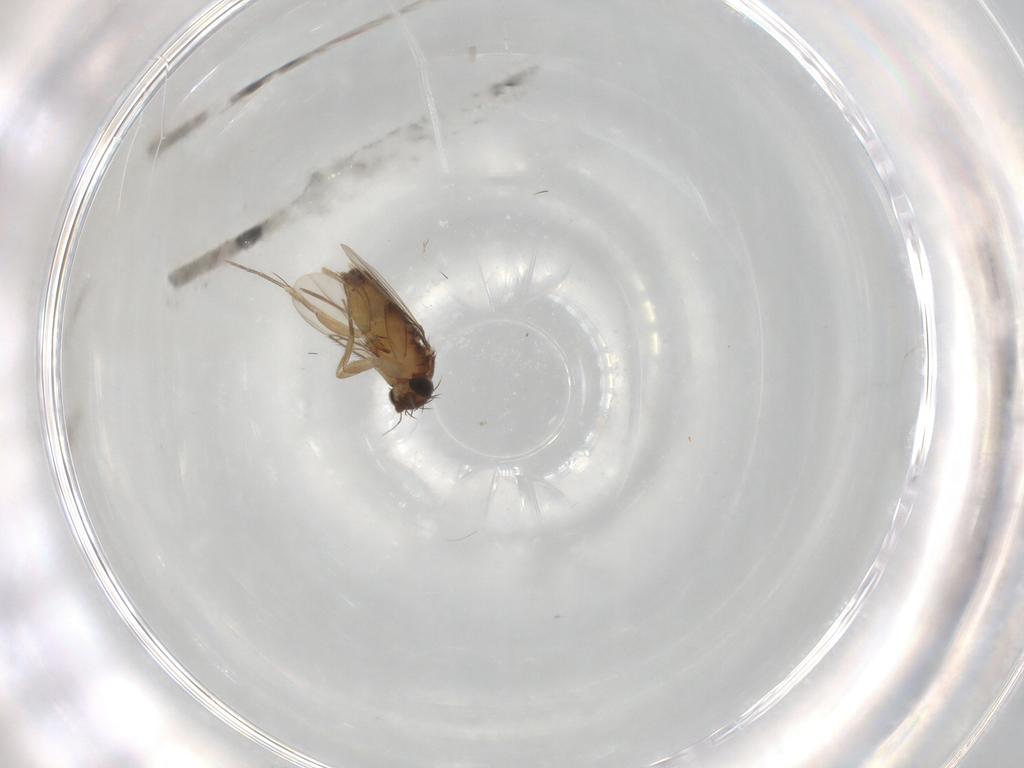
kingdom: Animalia
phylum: Arthropoda
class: Insecta
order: Diptera
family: Phoridae
